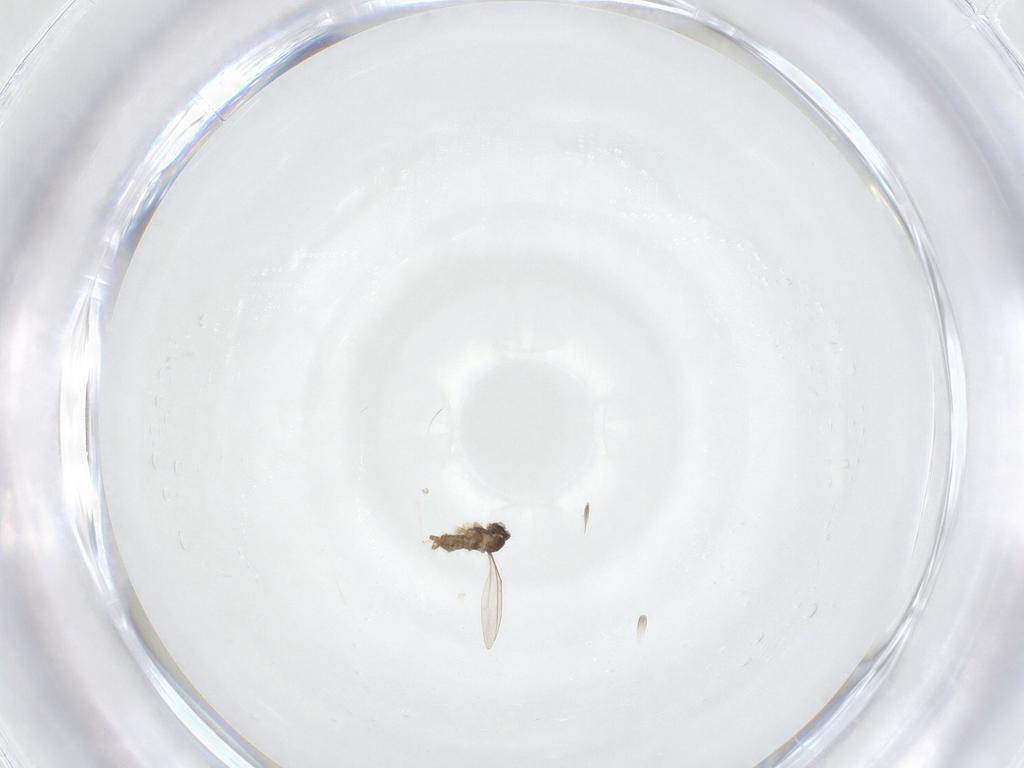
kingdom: Animalia
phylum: Arthropoda
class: Insecta
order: Diptera
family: Cecidomyiidae
